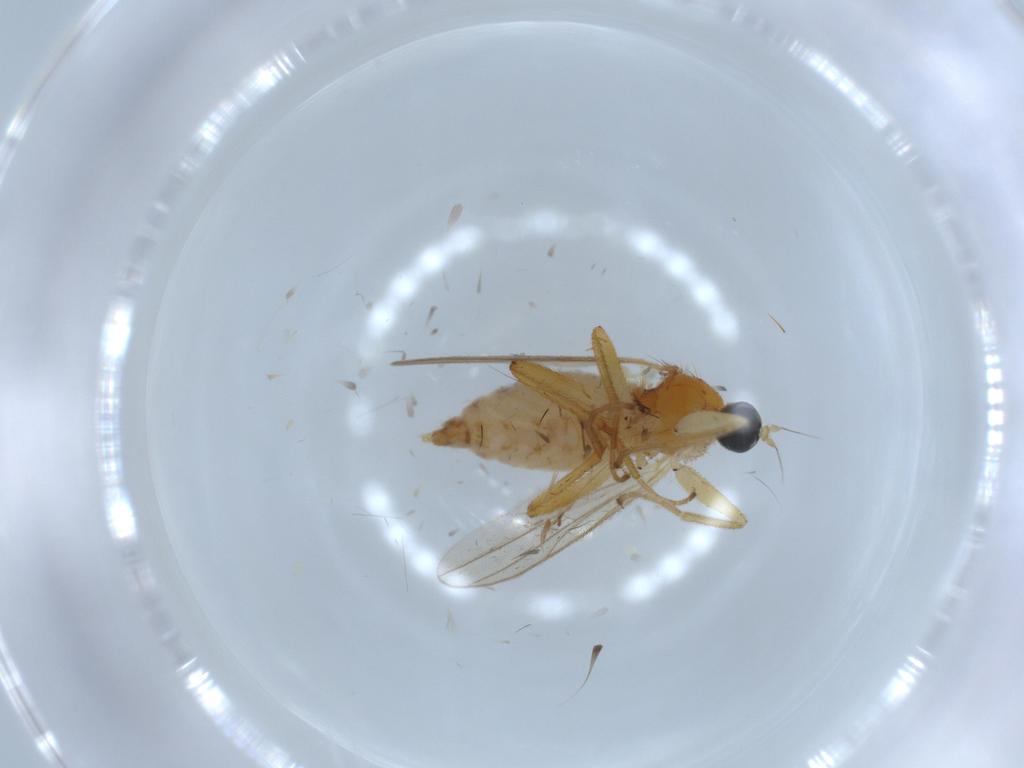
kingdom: Animalia
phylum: Arthropoda
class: Insecta
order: Diptera
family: Hybotidae
